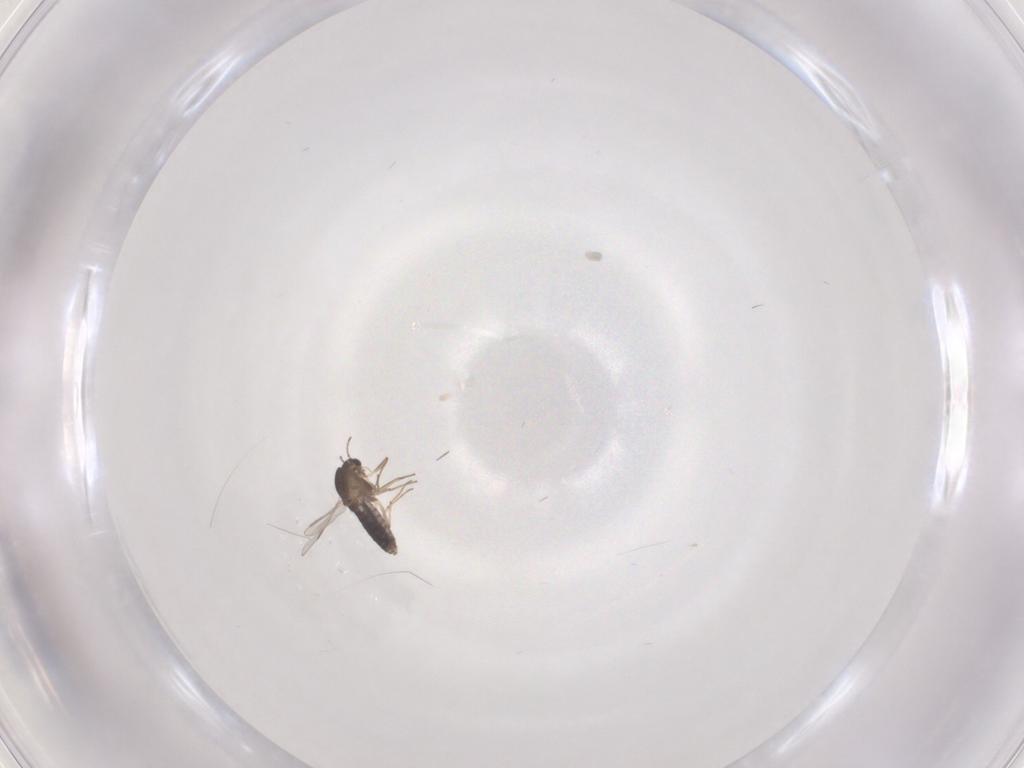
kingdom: Animalia
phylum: Arthropoda
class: Insecta
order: Diptera
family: Chironomidae
